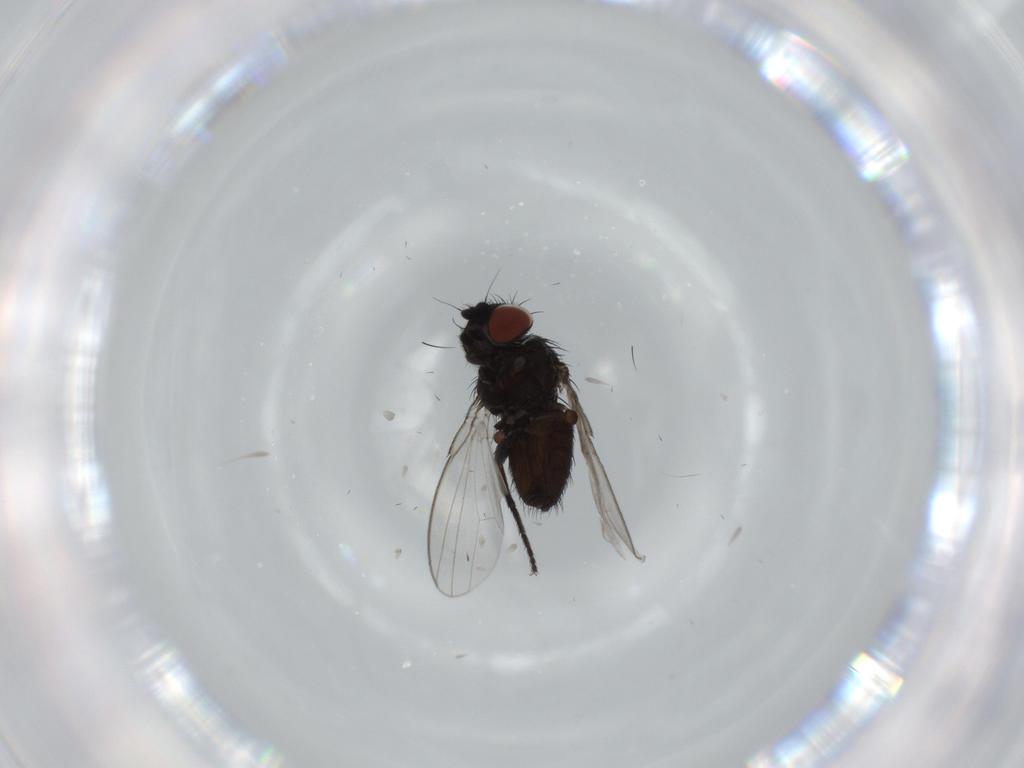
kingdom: Animalia
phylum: Arthropoda
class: Insecta
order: Diptera
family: Milichiidae
